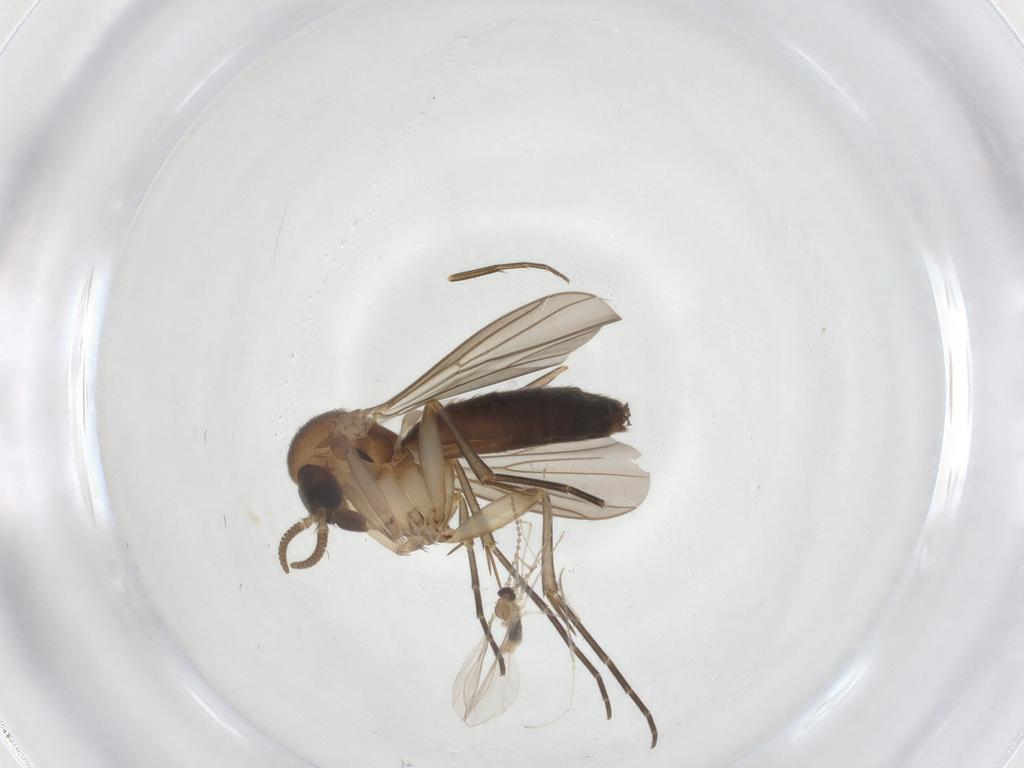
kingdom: Animalia
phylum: Arthropoda
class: Insecta
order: Diptera
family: Mycetophilidae
